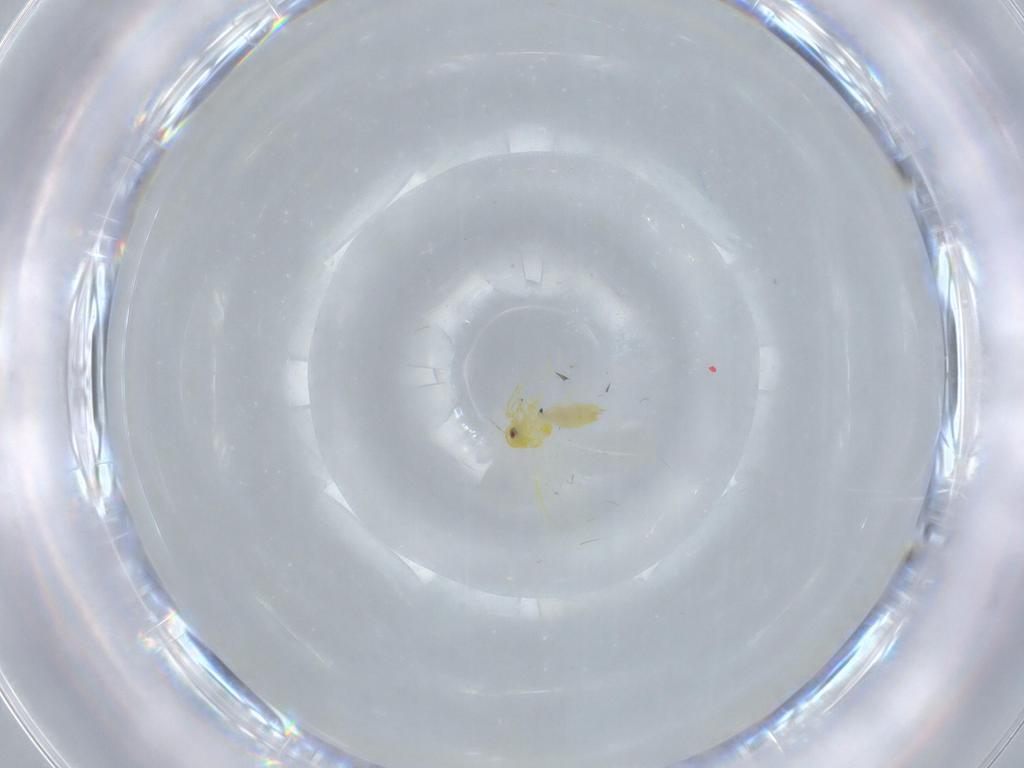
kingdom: Animalia
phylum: Arthropoda
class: Insecta
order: Hemiptera
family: Aleyrodidae
